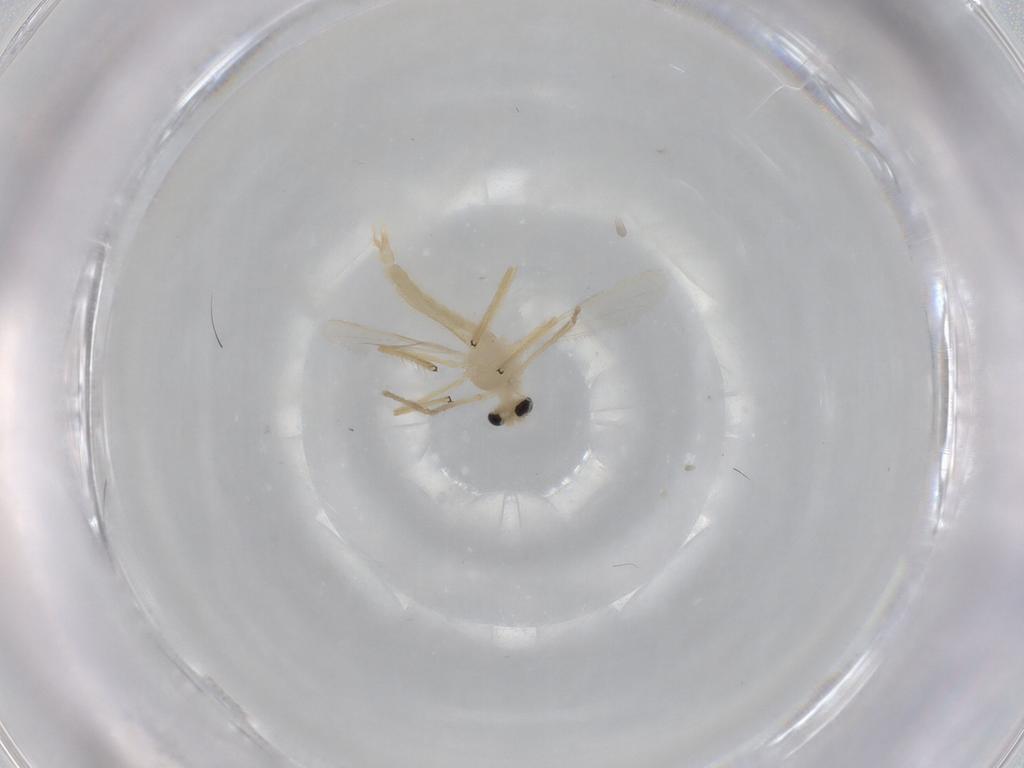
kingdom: Animalia
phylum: Arthropoda
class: Insecta
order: Diptera
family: Chironomidae
